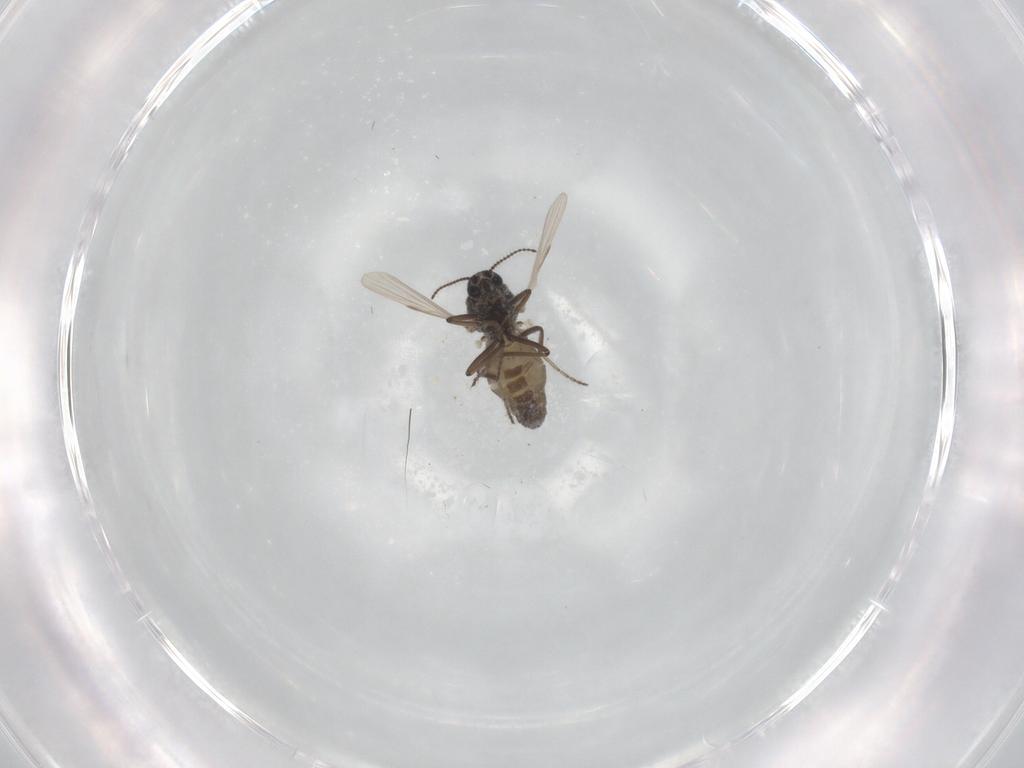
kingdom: Animalia
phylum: Arthropoda
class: Insecta
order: Diptera
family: Ceratopogonidae
